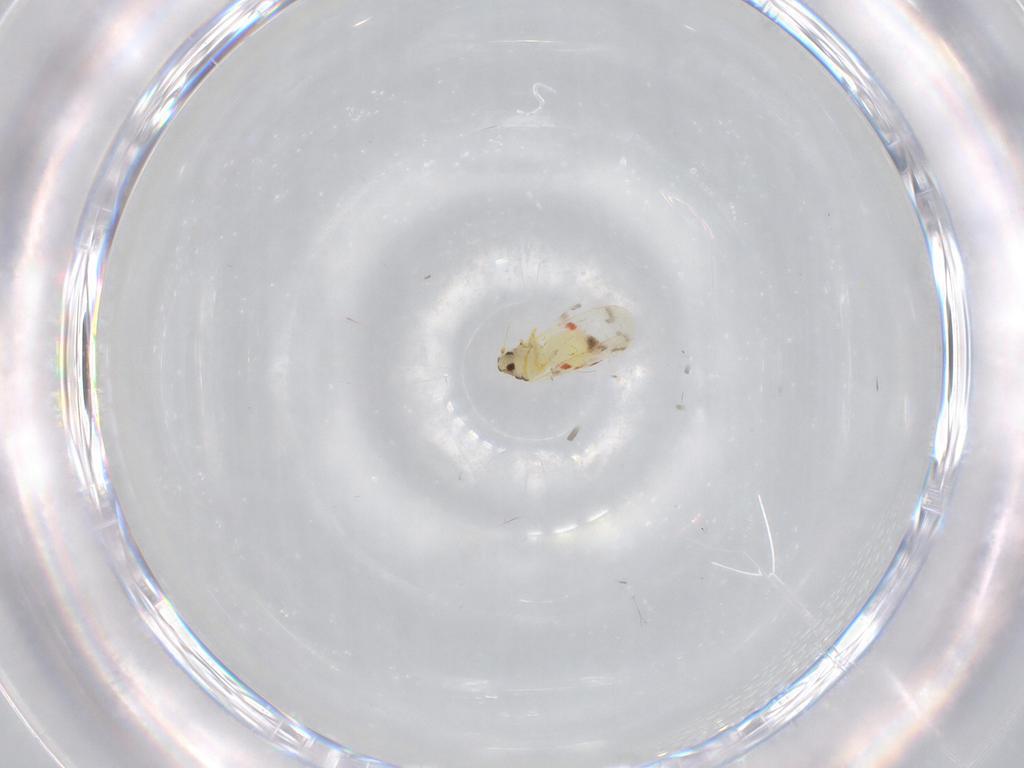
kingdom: Animalia
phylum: Arthropoda
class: Insecta
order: Hemiptera
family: Aleyrodidae
